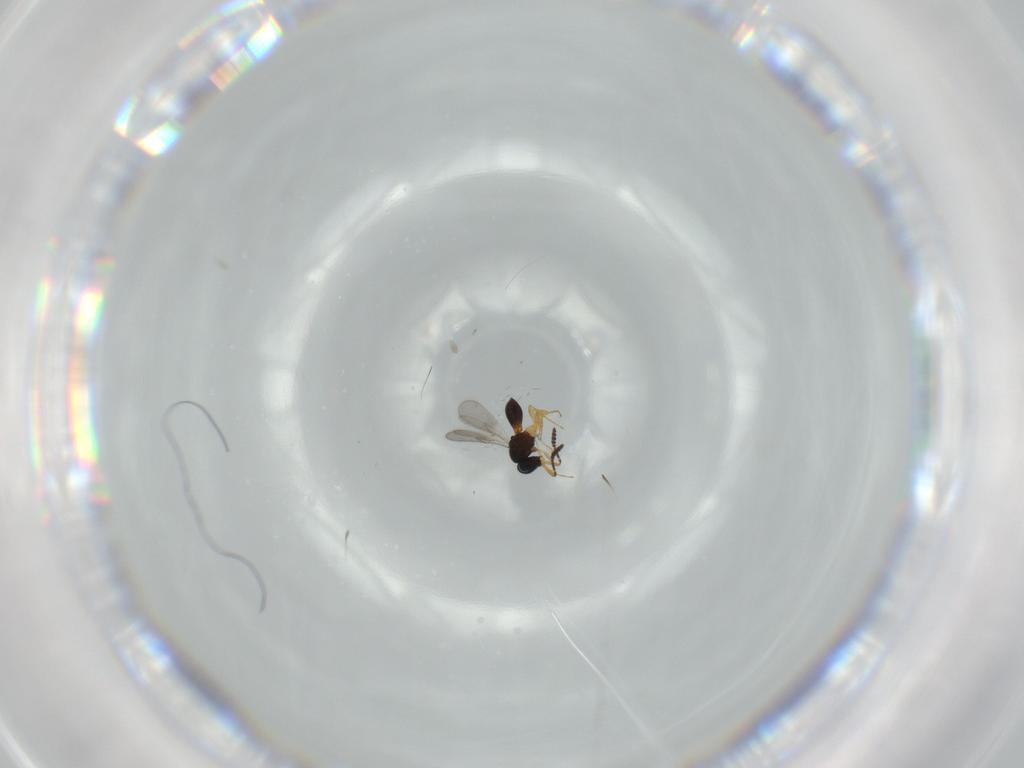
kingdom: Animalia
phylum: Arthropoda
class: Insecta
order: Hymenoptera
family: Scelionidae
